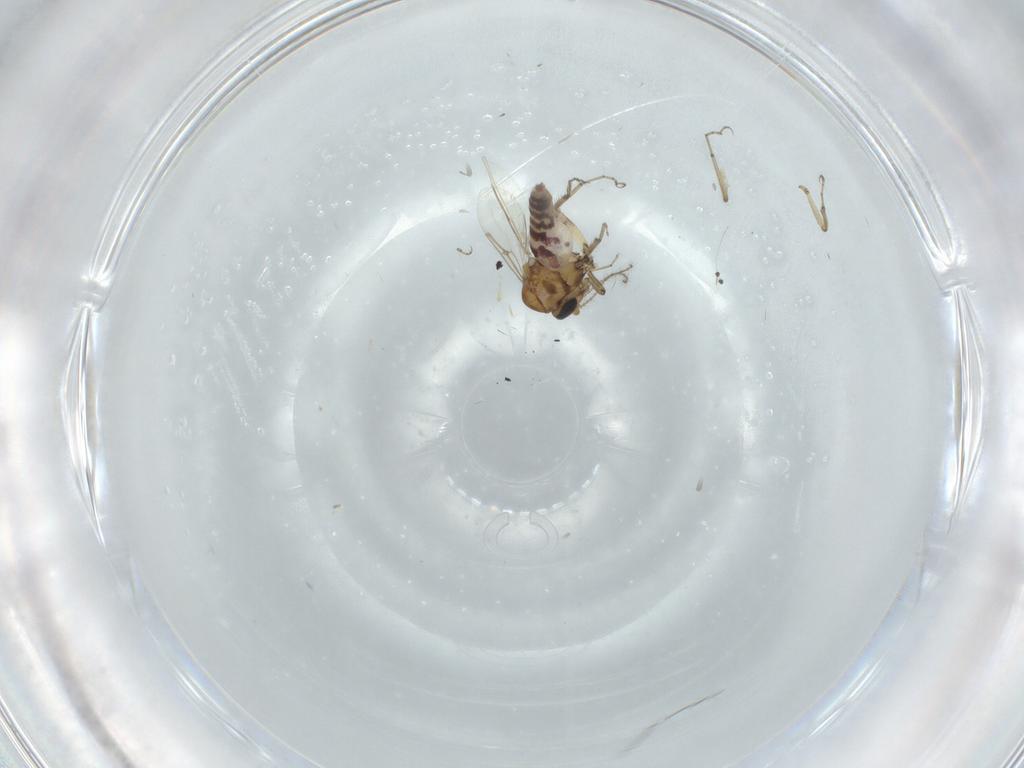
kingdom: Animalia
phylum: Arthropoda
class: Insecta
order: Diptera
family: Ceratopogonidae
